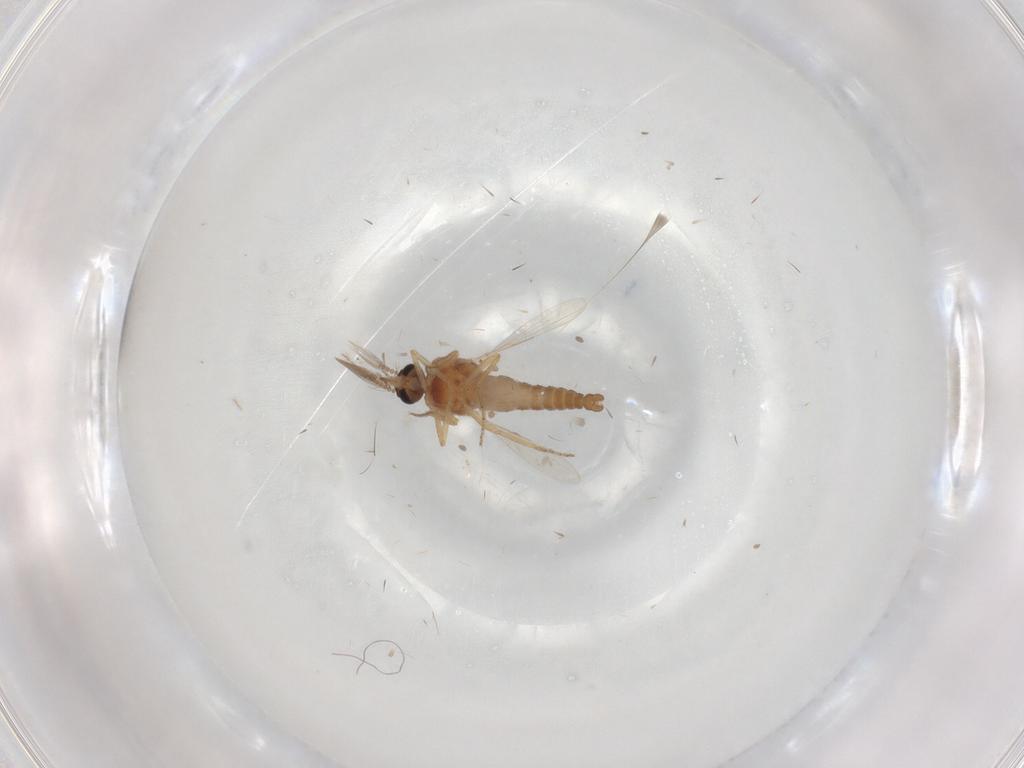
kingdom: Animalia
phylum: Arthropoda
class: Insecta
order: Diptera
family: Ceratopogonidae
